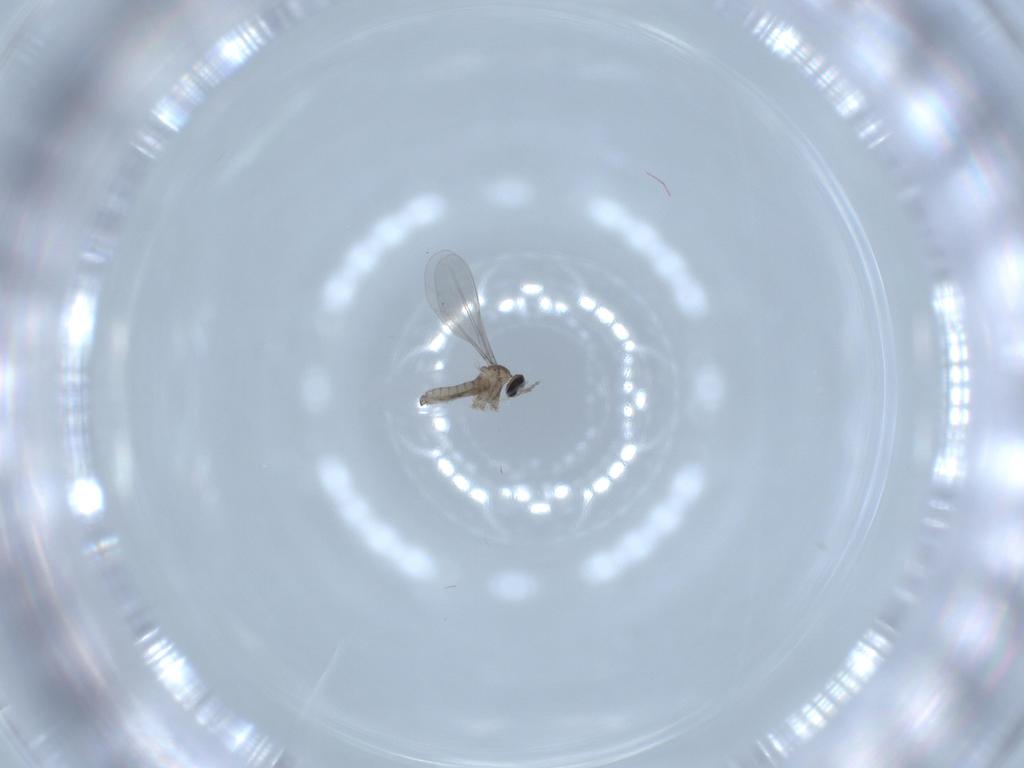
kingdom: Animalia
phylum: Arthropoda
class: Insecta
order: Diptera
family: Cecidomyiidae
